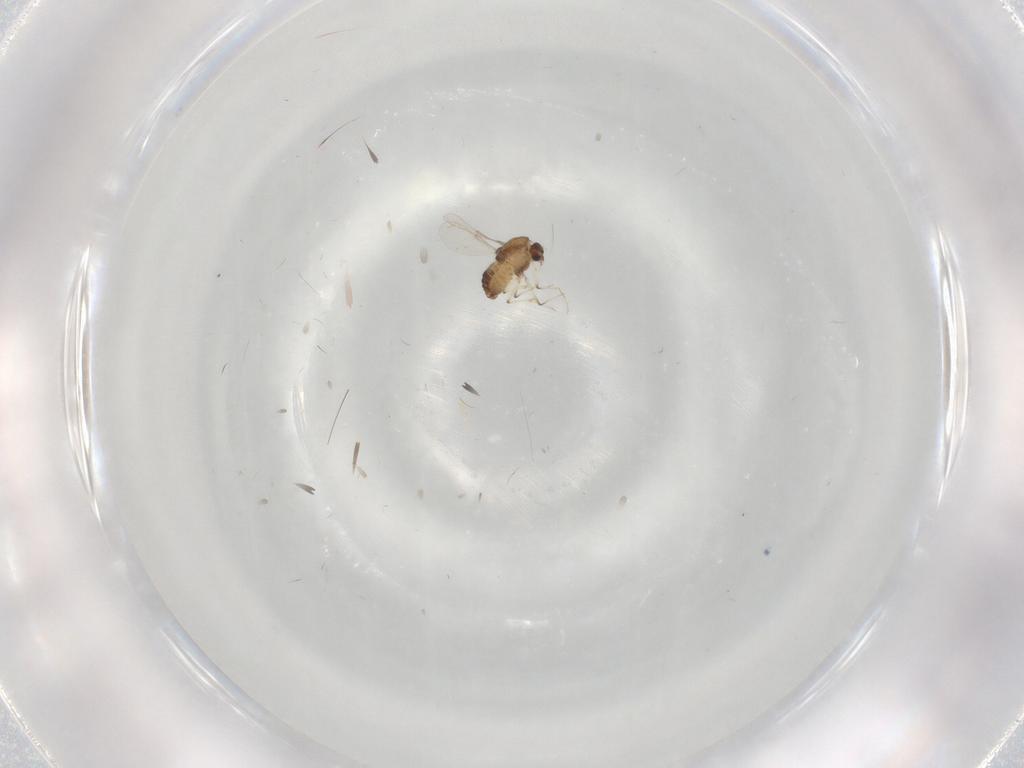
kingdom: Animalia
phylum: Arthropoda
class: Insecta
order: Diptera
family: Chironomidae
